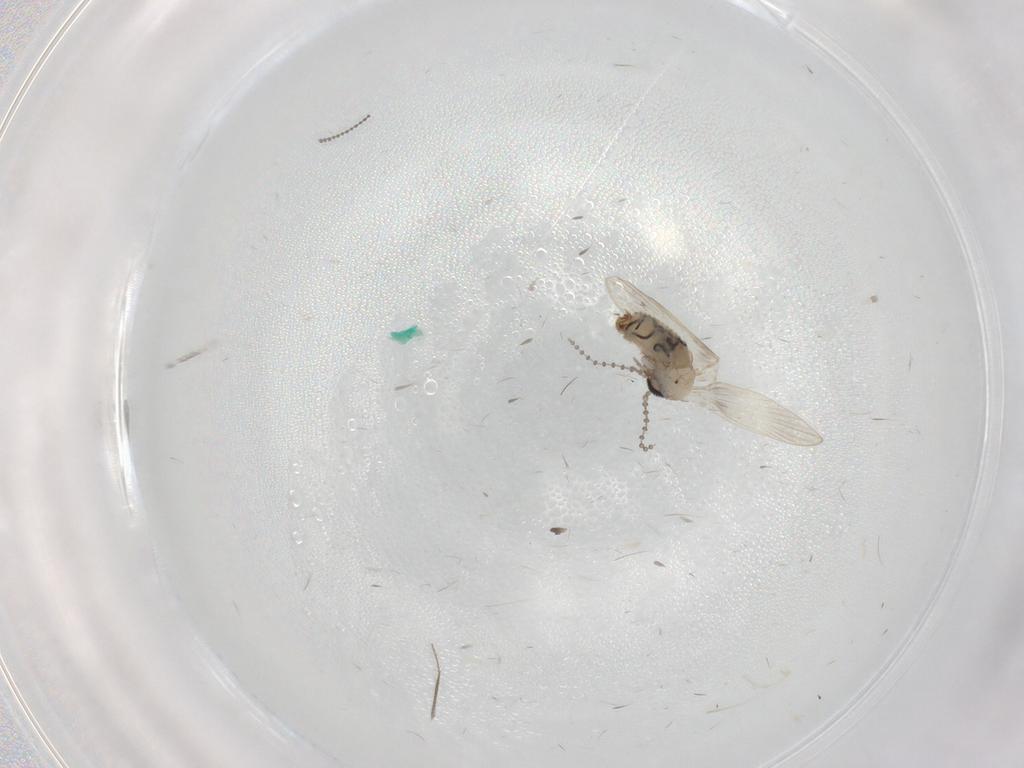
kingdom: Animalia
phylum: Arthropoda
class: Insecta
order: Diptera
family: Psychodidae
